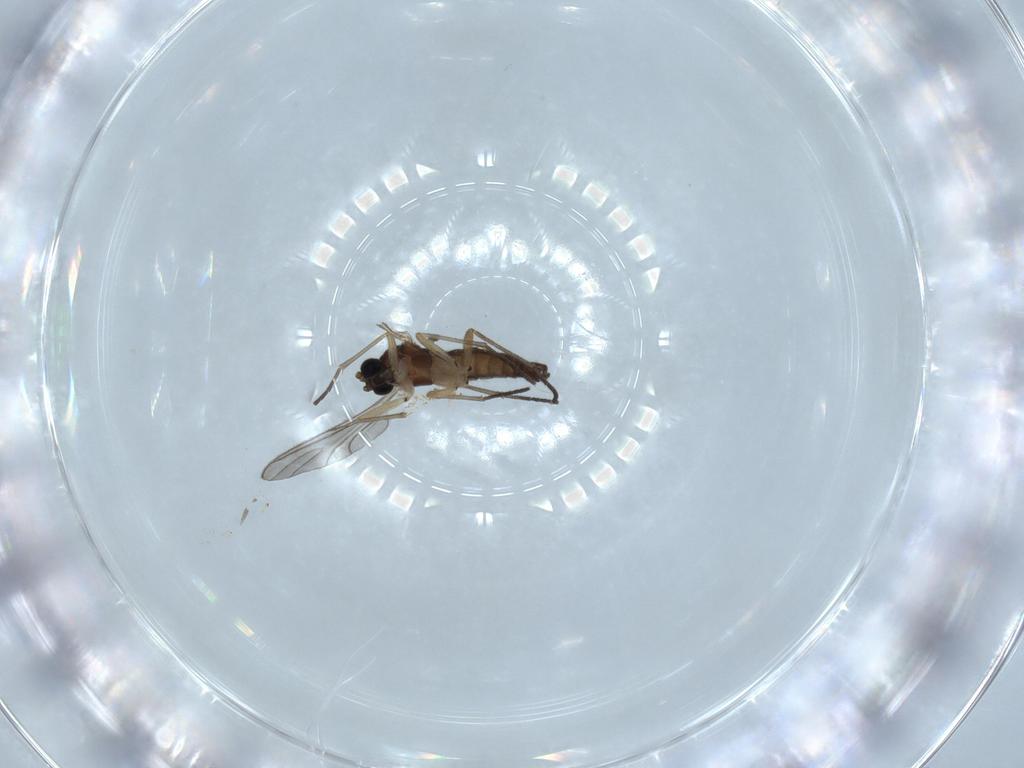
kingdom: Animalia
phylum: Arthropoda
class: Insecta
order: Diptera
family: Sciaridae
